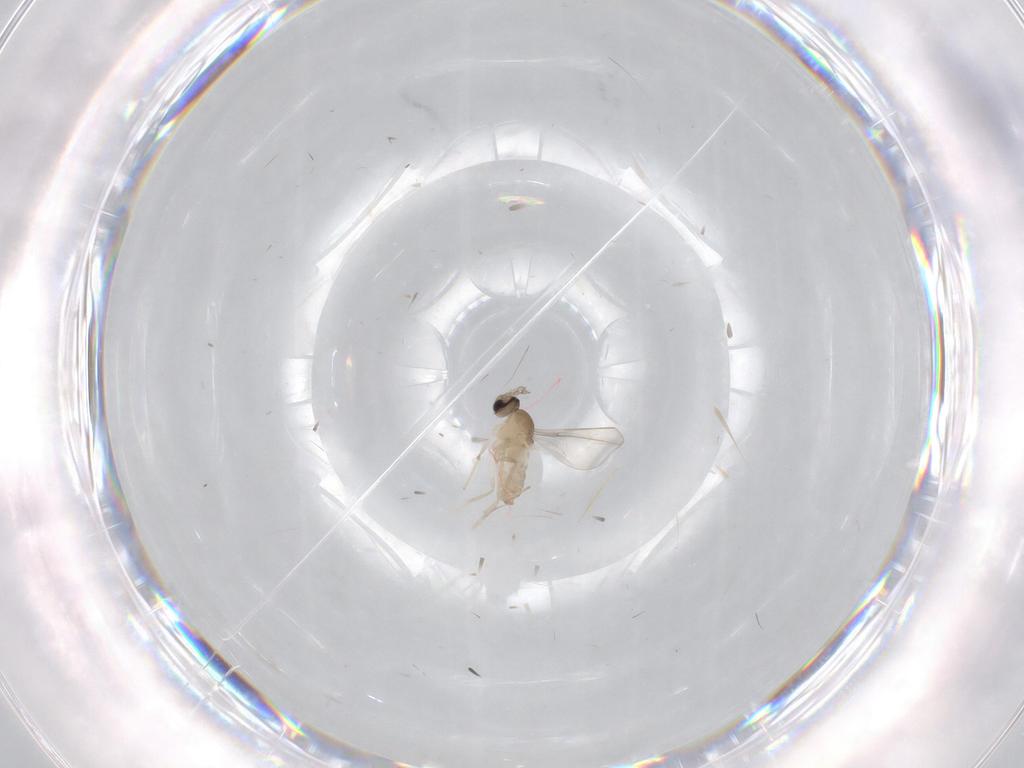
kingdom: Animalia
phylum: Arthropoda
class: Insecta
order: Diptera
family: Cecidomyiidae
